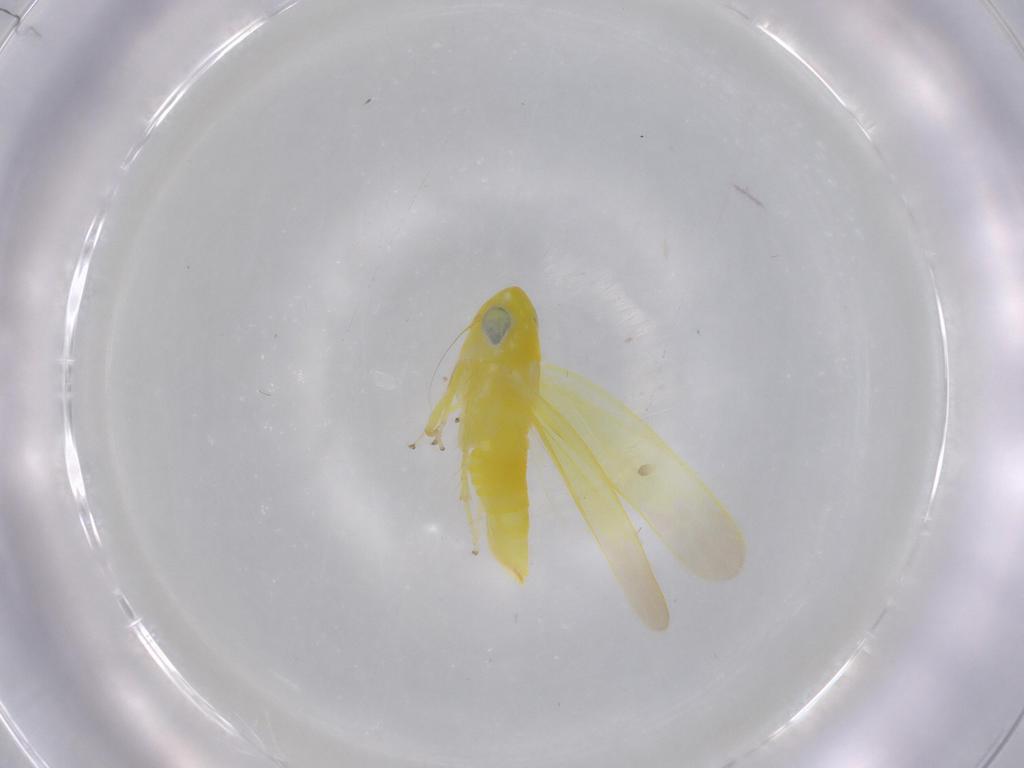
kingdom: Animalia
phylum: Arthropoda
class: Insecta
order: Hemiptera
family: Cicadellidae
